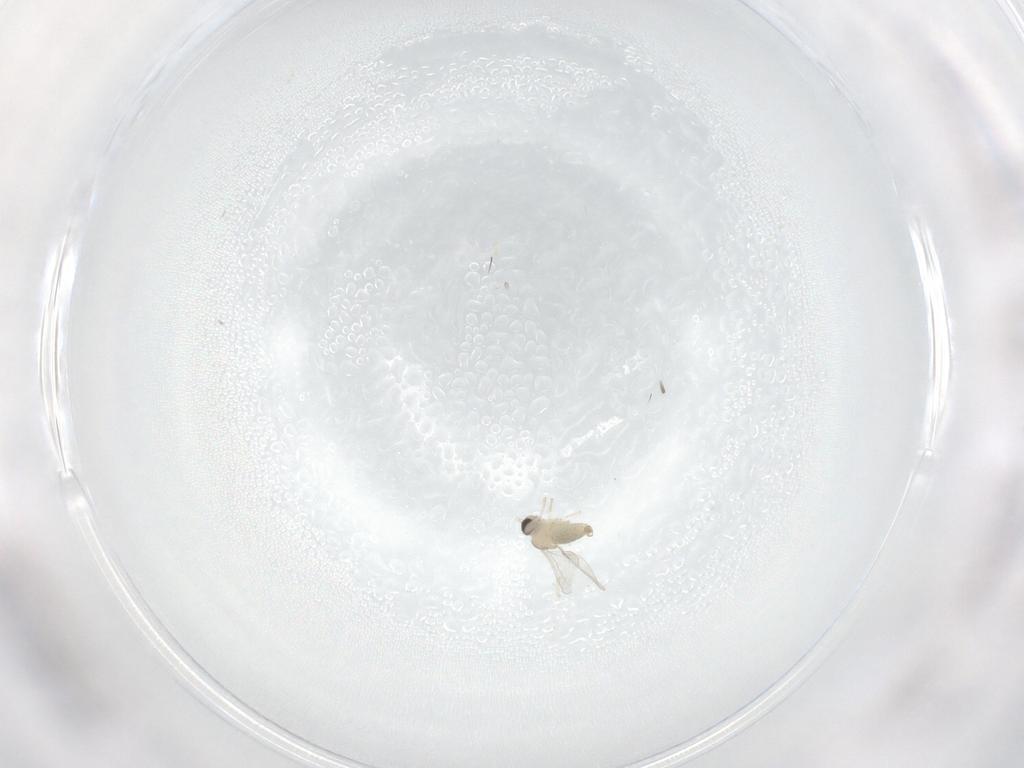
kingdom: Animalia
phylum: Arthropoda
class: Insecta
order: Diptera
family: Cecidomyiidae
